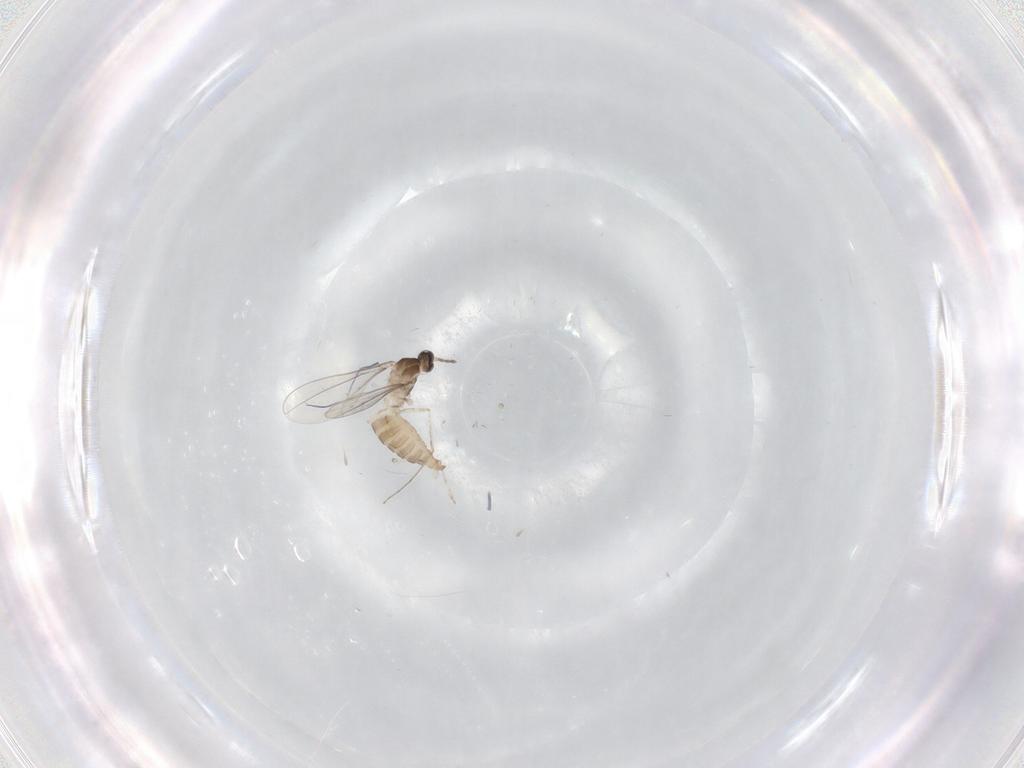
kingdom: Animalia
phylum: Arthropoda
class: Insecta
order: Diptera
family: Cecidomyiidae
